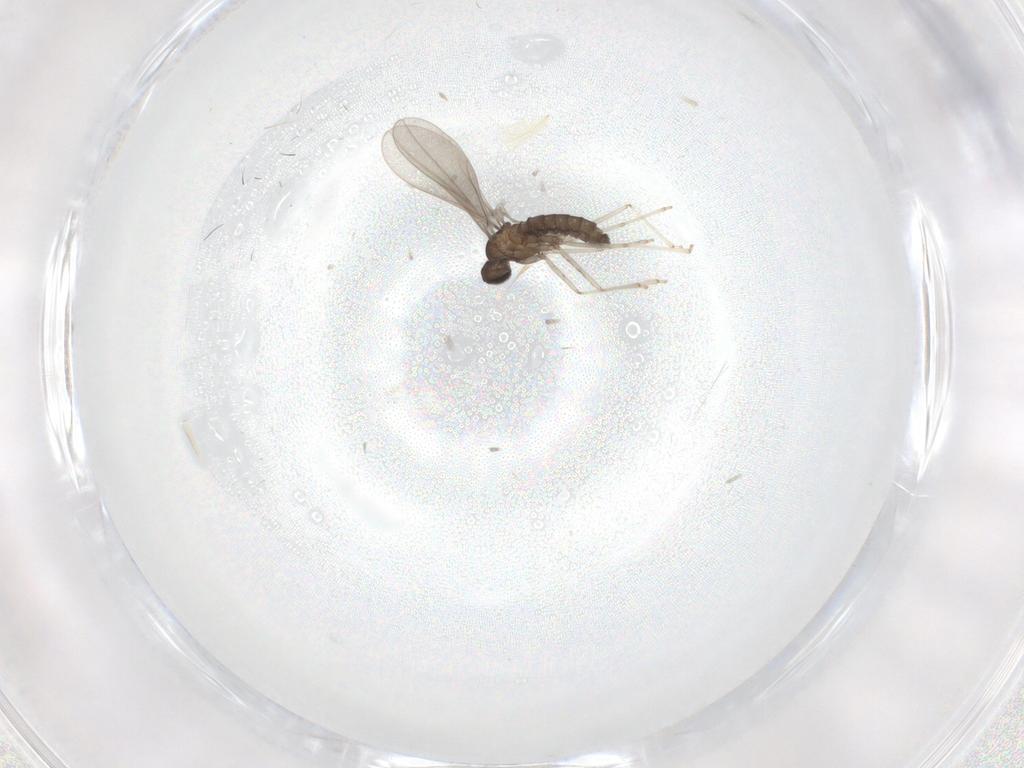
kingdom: Animalia
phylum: Arthropoda
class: Insecta
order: Diptera
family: Cecidomyiidae
